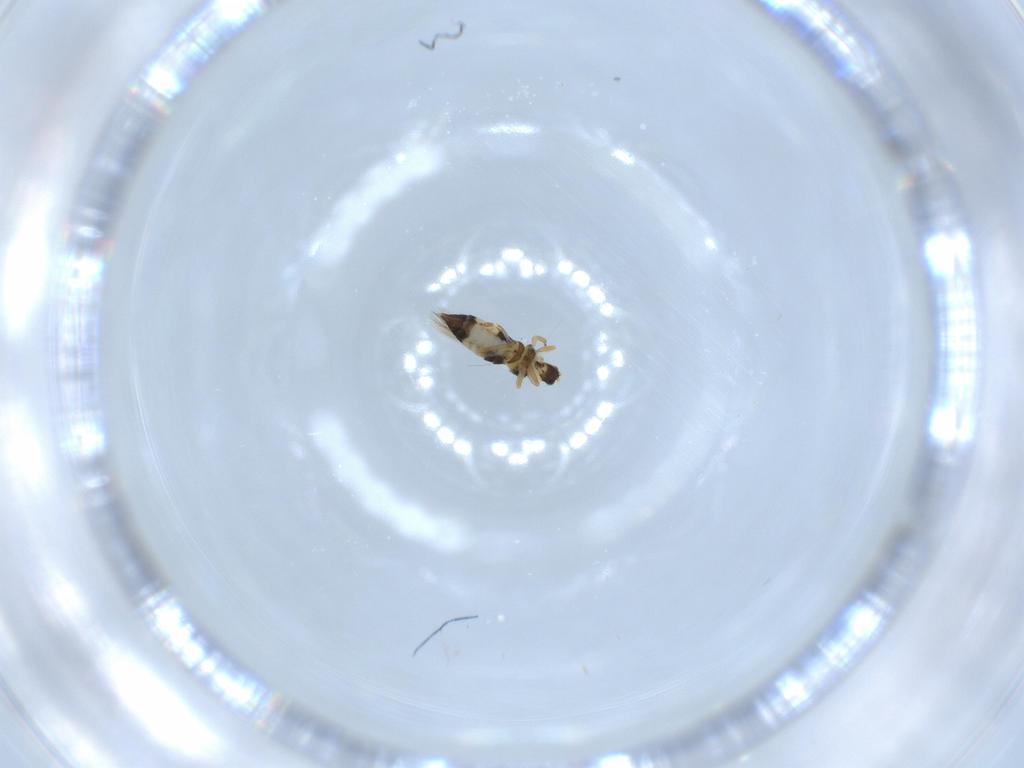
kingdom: Animalia
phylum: Arthropoda
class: Insecta
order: Thysanoptera
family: Thripidae
